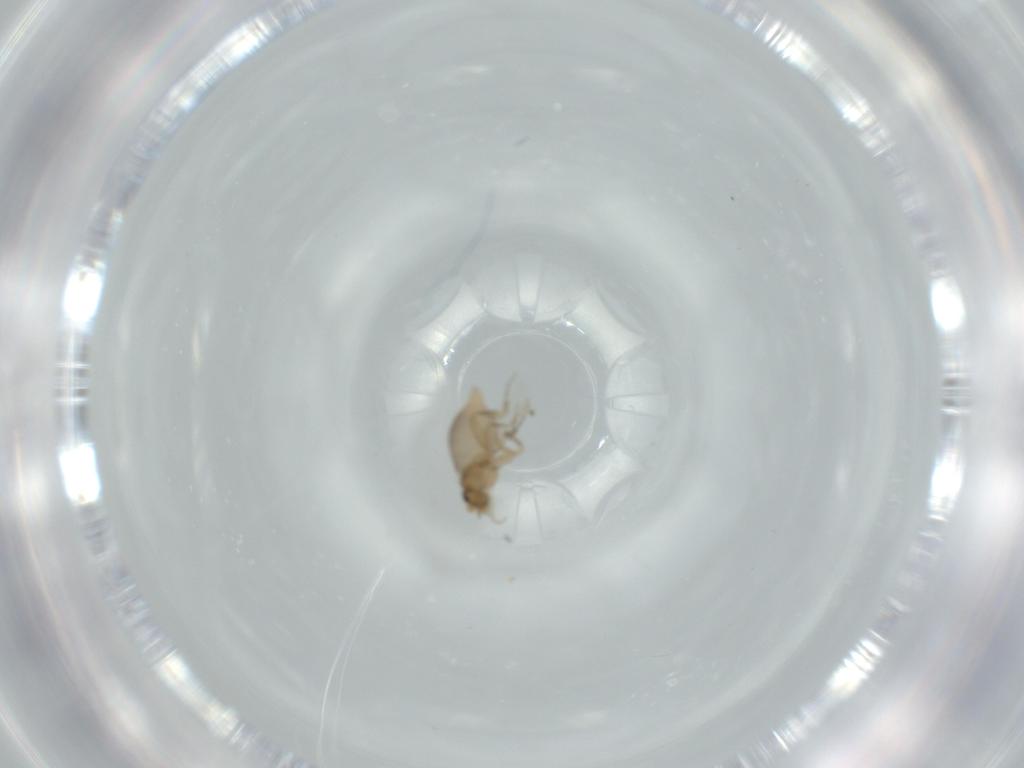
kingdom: Animalia
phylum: Arthropoda
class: Insecta
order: Diptera
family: Phoridae
